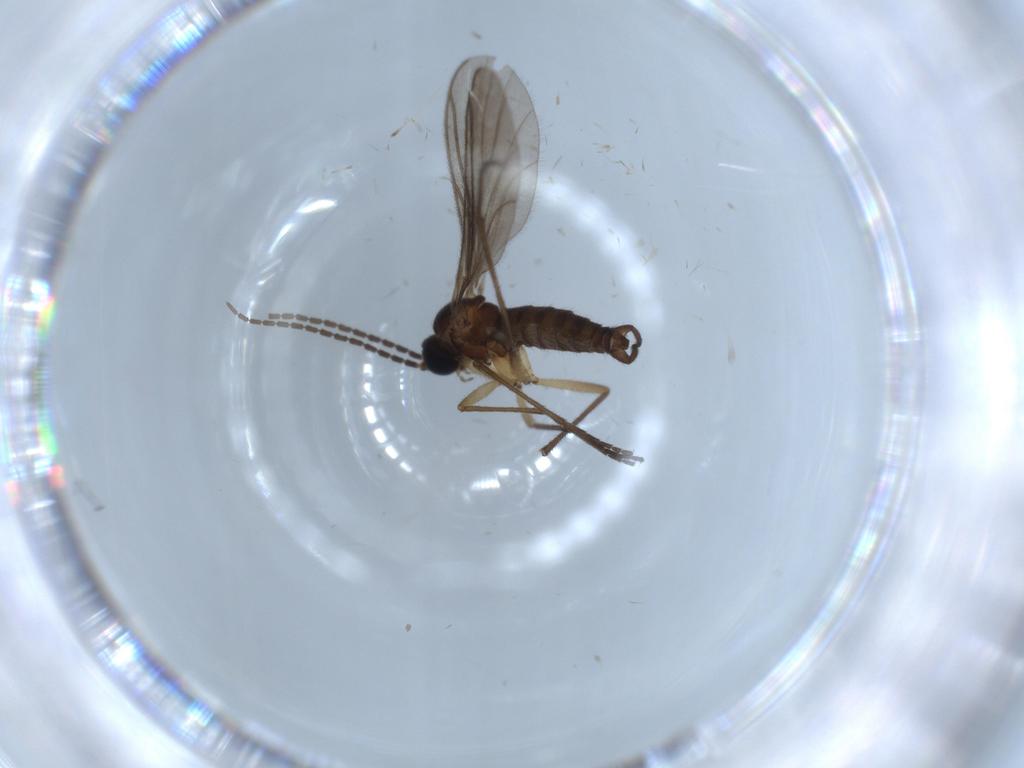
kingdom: Animalia
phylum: Arthropoda
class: Insecta
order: Diptera
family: Sciaridae
